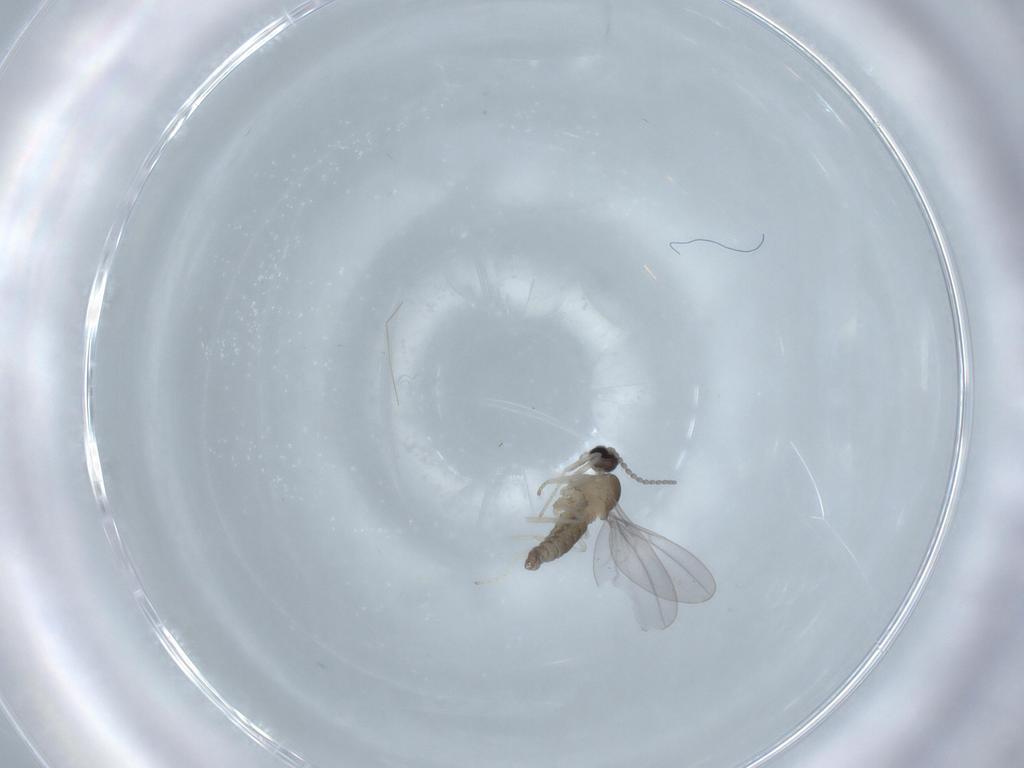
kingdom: Animalia
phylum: Arthropoda
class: Insecta
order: Diptera
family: Cecidomyiidae
